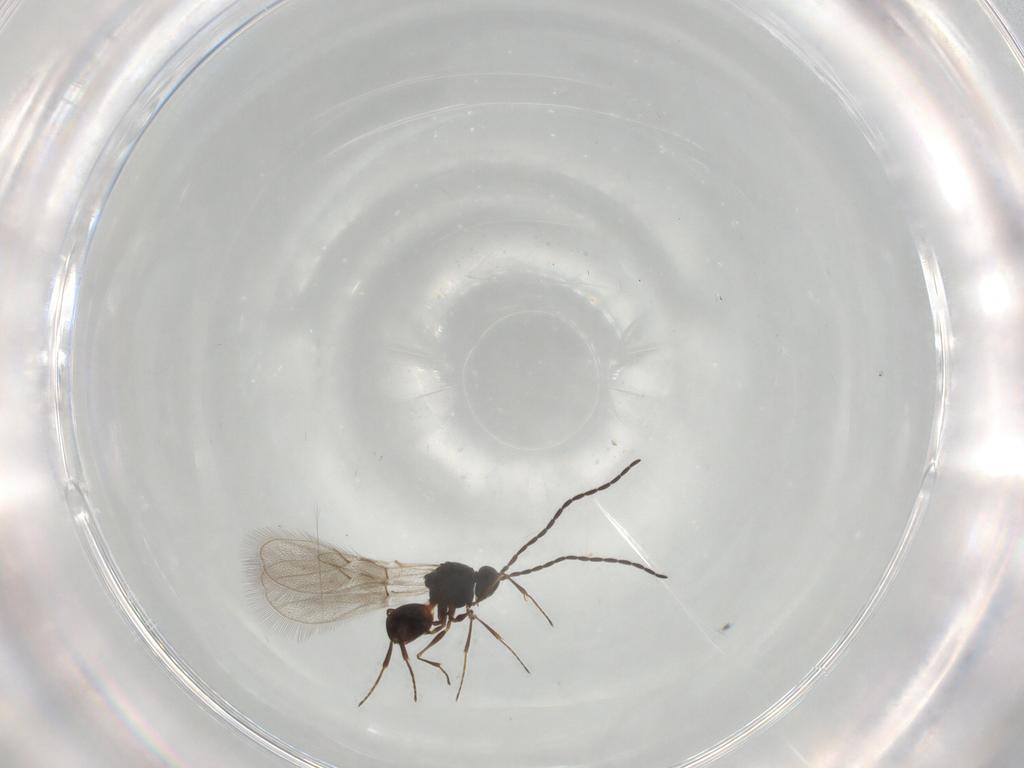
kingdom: Animalia
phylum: Arthropoda
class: Insecta
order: Hymenoptera
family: Figitidae
